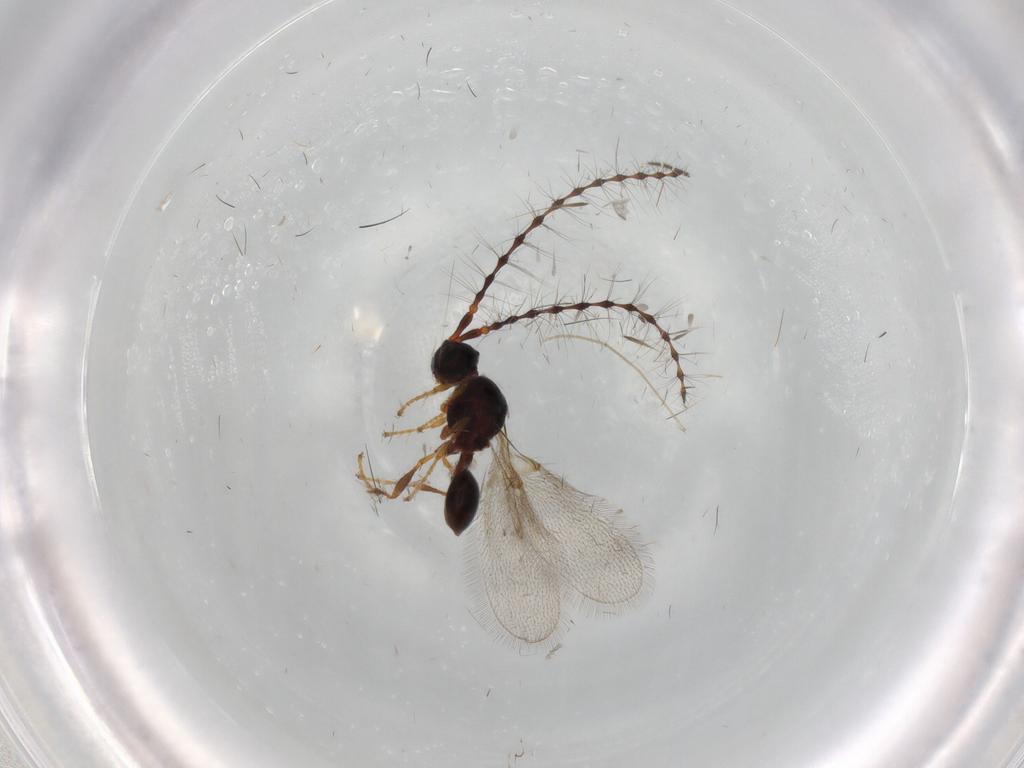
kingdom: Animalia
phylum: Arthropoda
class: Insecta
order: Hymenoptera
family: Diapriidae
